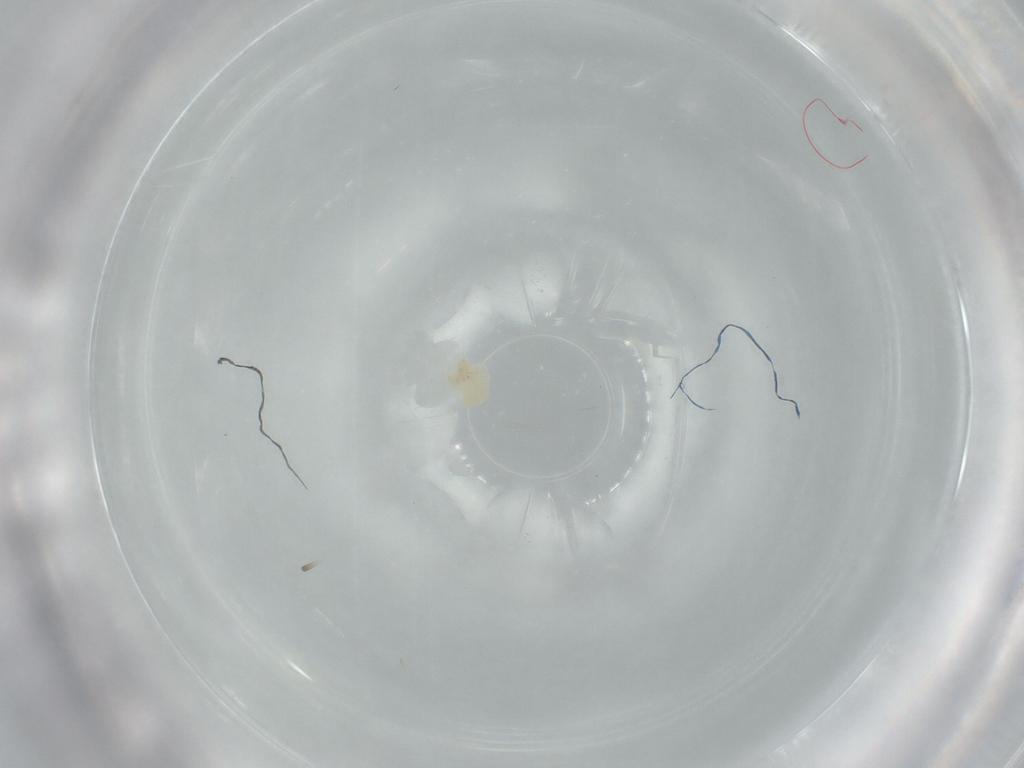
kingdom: Animalia
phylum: Arthropoda
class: Arachnida
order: Trombidiformes
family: Anystidae
